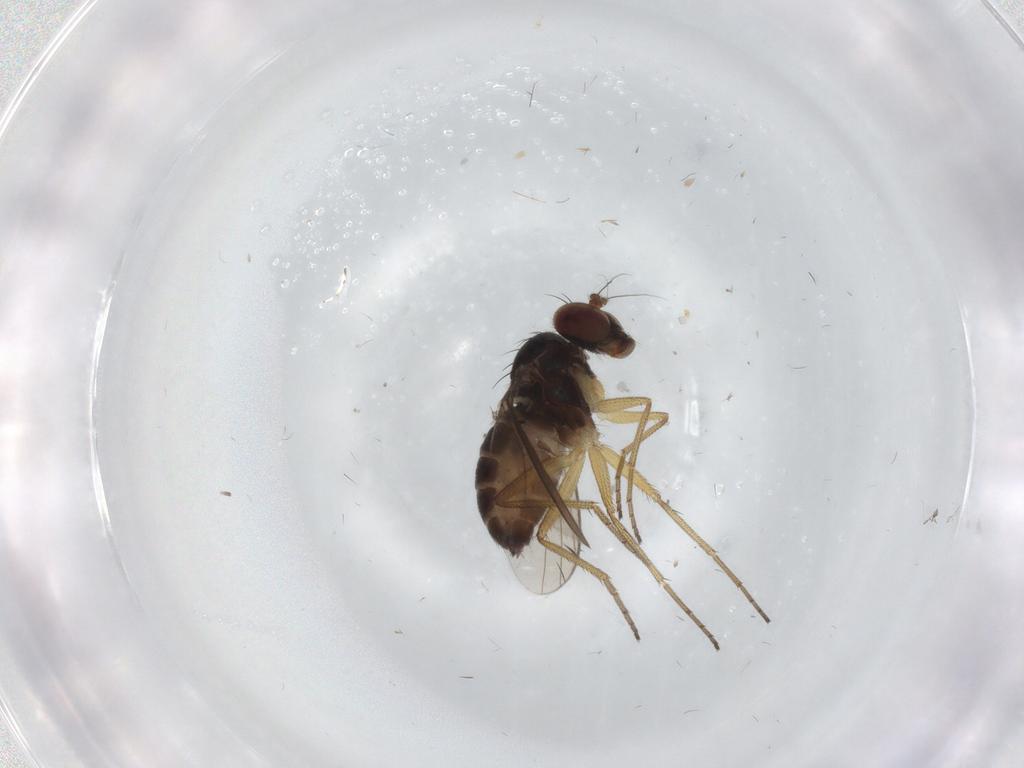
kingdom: Animalia
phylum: Arthropoda
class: Insecta
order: Diptera
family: Dolichopodidae
